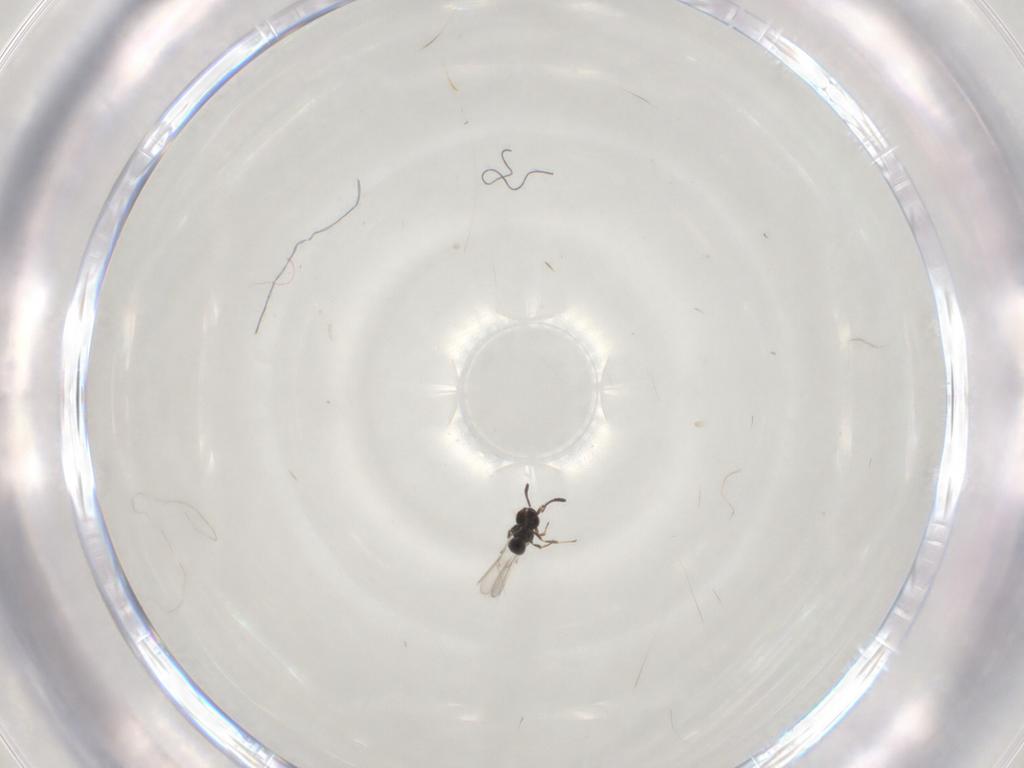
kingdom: Animalia
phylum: Arthropoda
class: Insecta
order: Hymenoptera
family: Scelionidae
